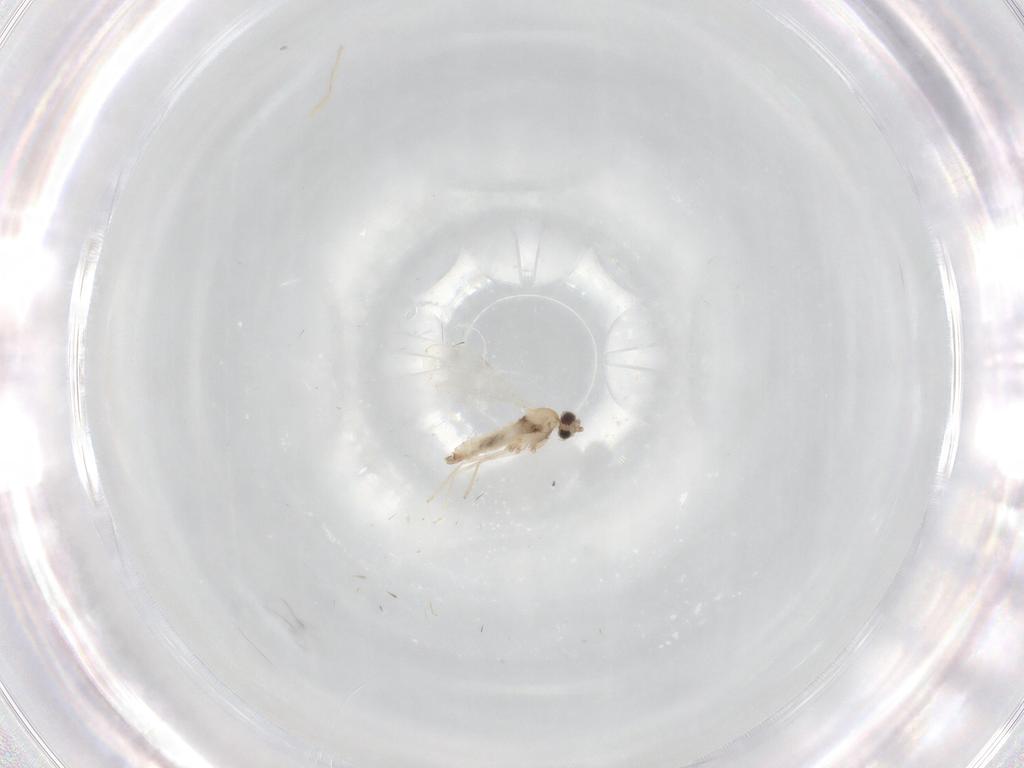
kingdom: Animalia
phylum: Arthropoda
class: Insecta
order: Diptera
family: Cecidomyiidae
